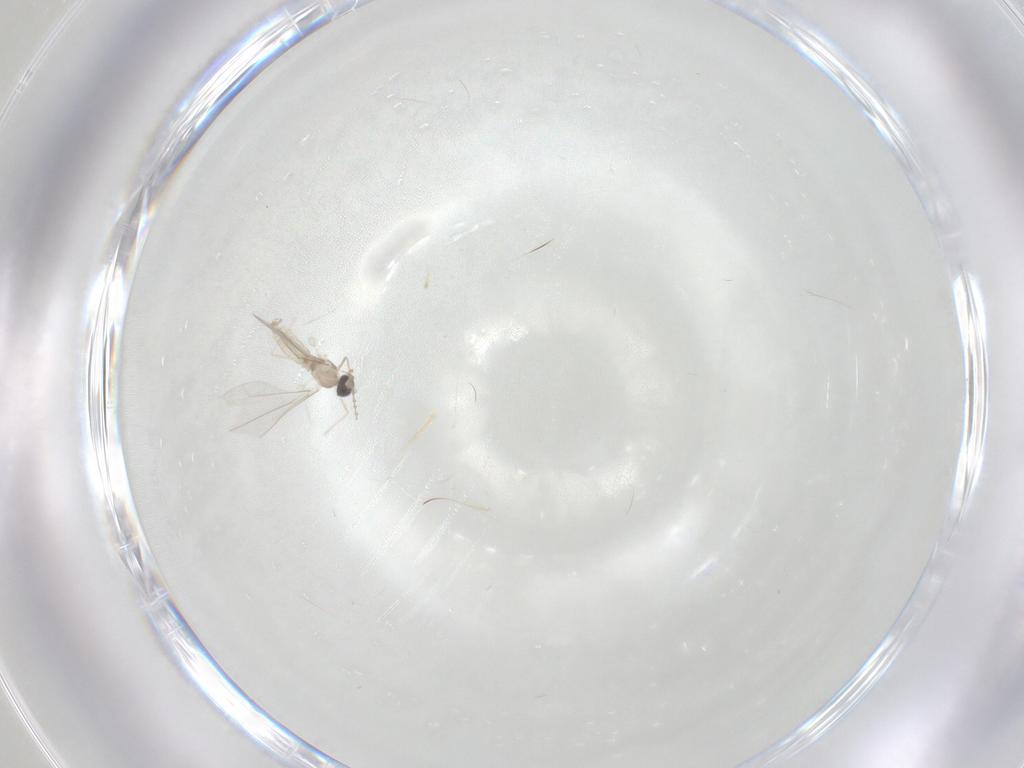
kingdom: Animalia
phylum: Arthropoda
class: Insecta
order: Diptera
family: Cecidomyiidae
